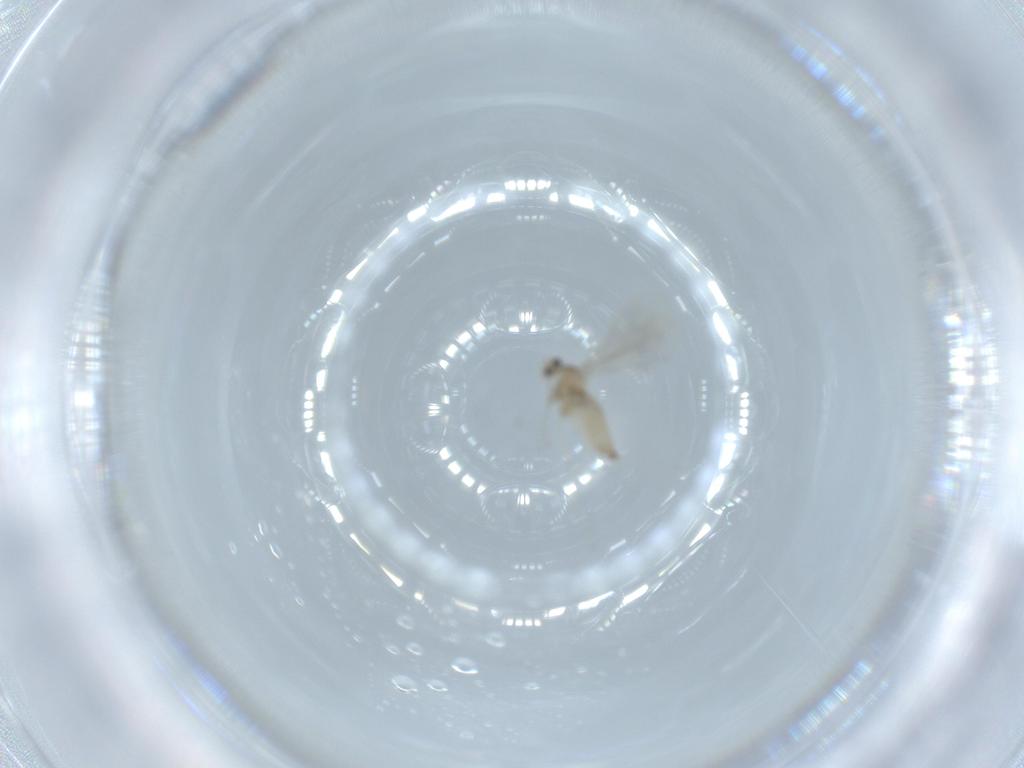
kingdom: Animalia
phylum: Arthropoda
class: Insecta
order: Diptera
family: Cecidomyiidae
